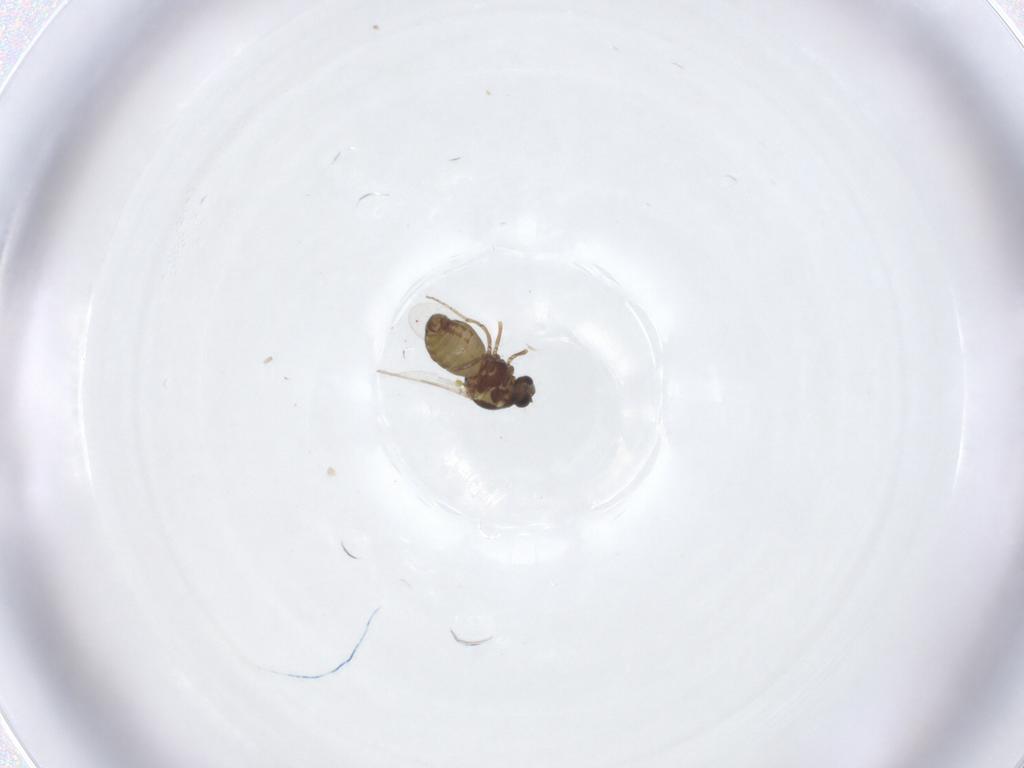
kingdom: Animalia
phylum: Arthropoda
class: Insecta
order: Diptera
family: Ceratopogonidae
